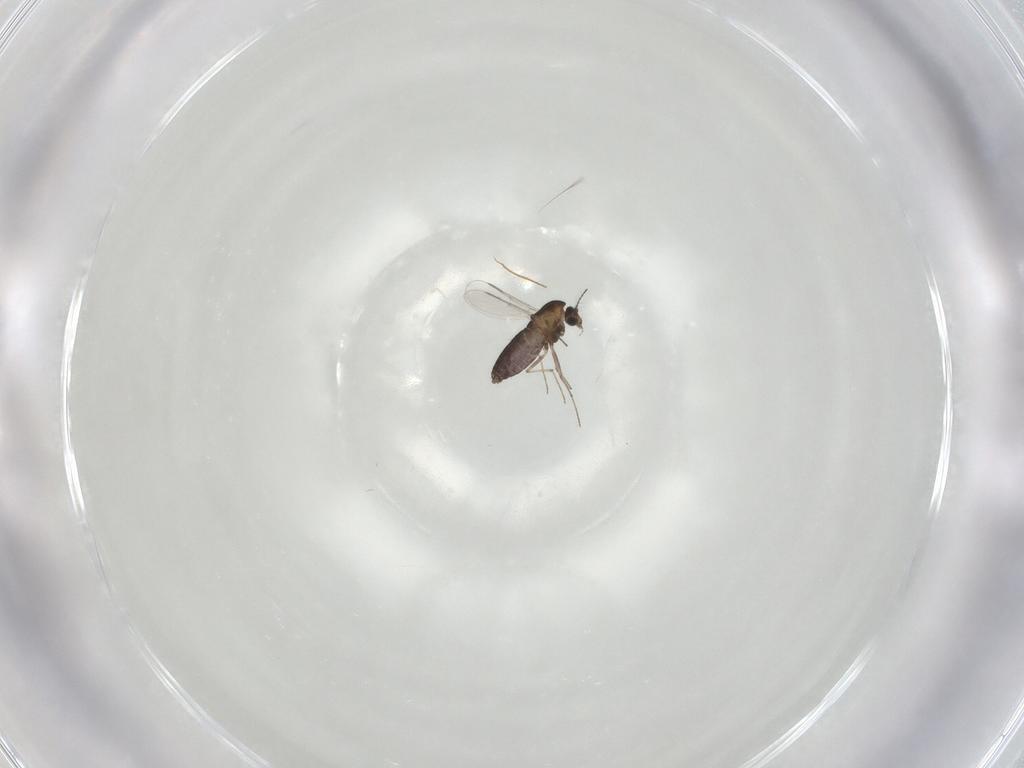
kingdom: Animalia
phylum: Arthropoda
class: Insecta
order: Diptera
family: Chironomidae
